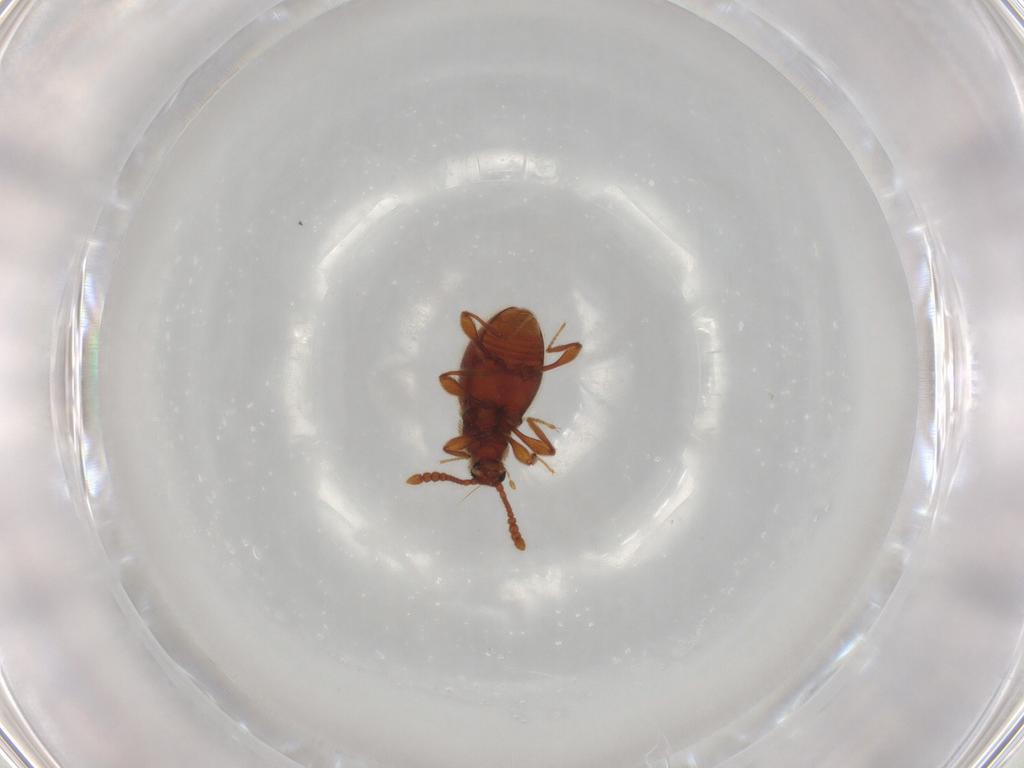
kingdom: Animalia
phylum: Arthropoda
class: Insecta
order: Coleoptera
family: Staphylinidae
